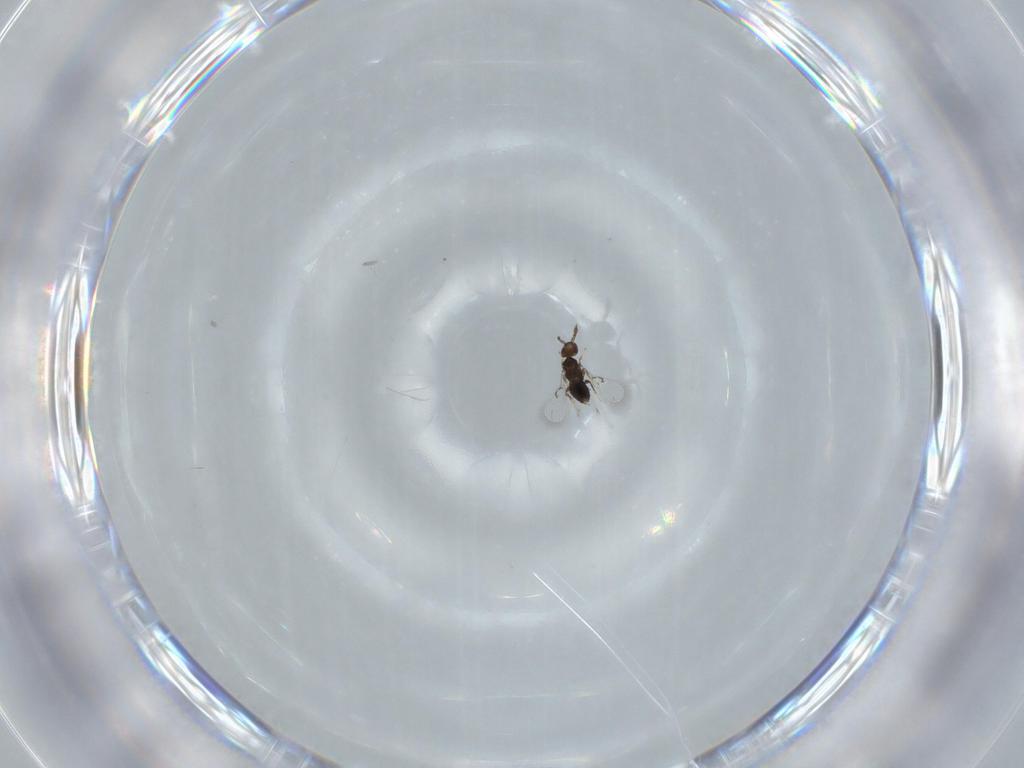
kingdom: Animalia
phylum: Arthropoda
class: Insecta
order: Hymenoptera
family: Trichogrammatidae
